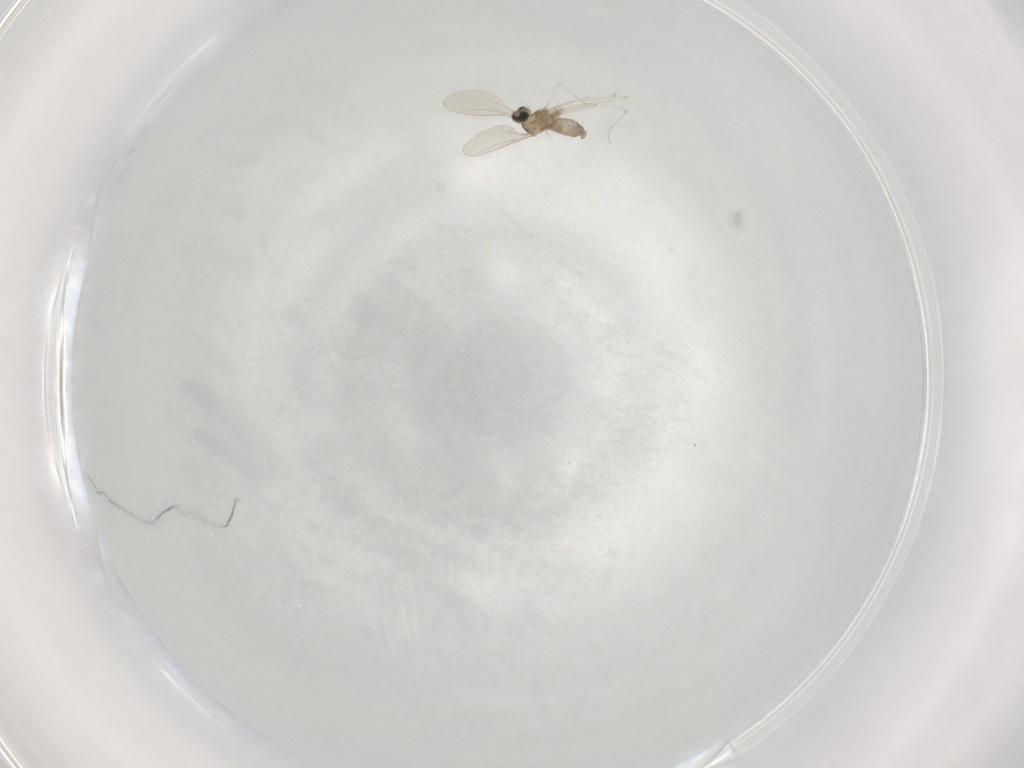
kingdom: Animalia
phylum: Arthropoda
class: Insecta
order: Diptera
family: Cecidomyiidae
